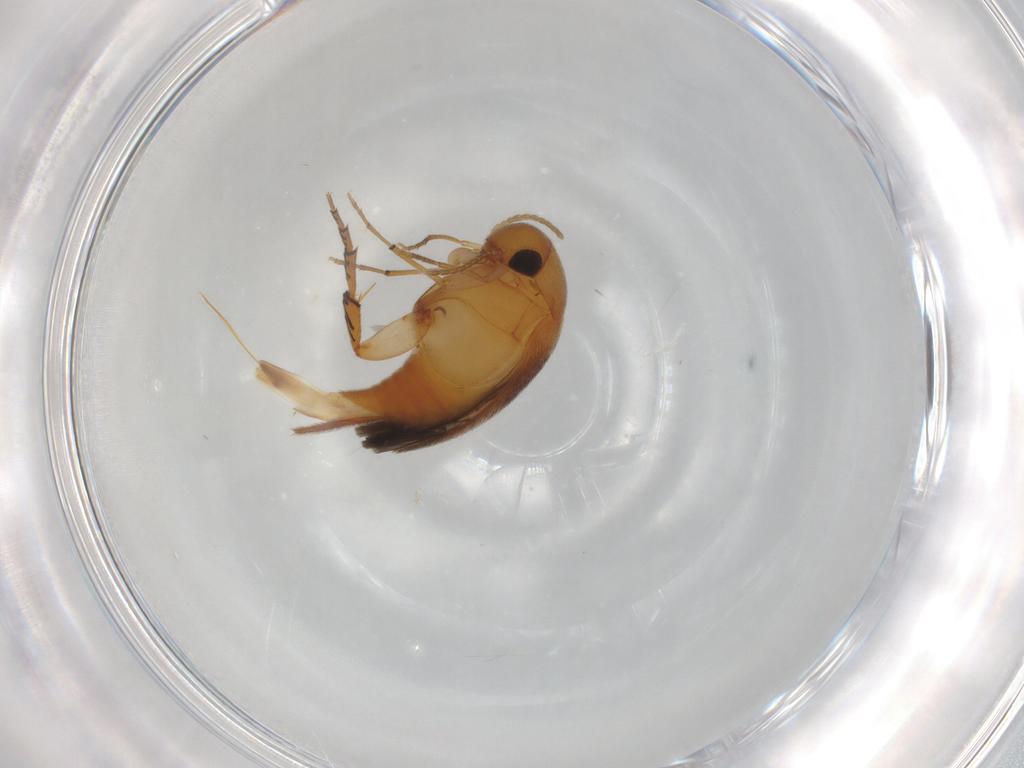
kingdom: Animalia
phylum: Arthropoda
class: Insecta
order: Coleoptera
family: Mordellidae
